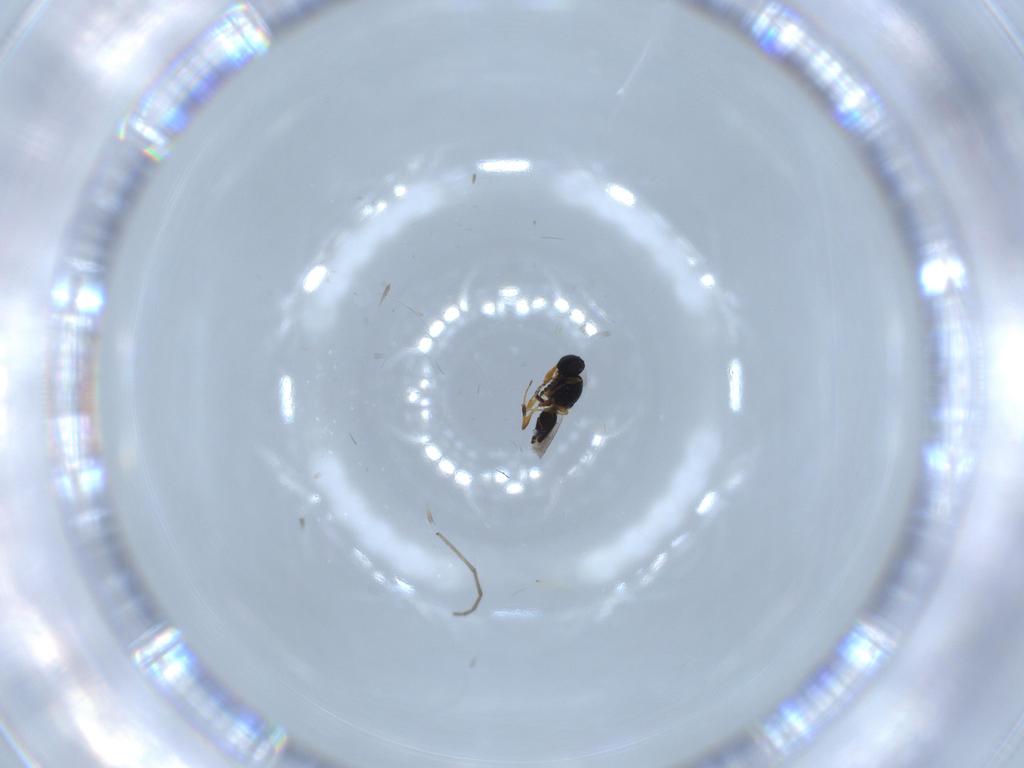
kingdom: Animalia
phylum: Arthropoda
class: Insecta
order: Hymenoptera
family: Platygastridae
